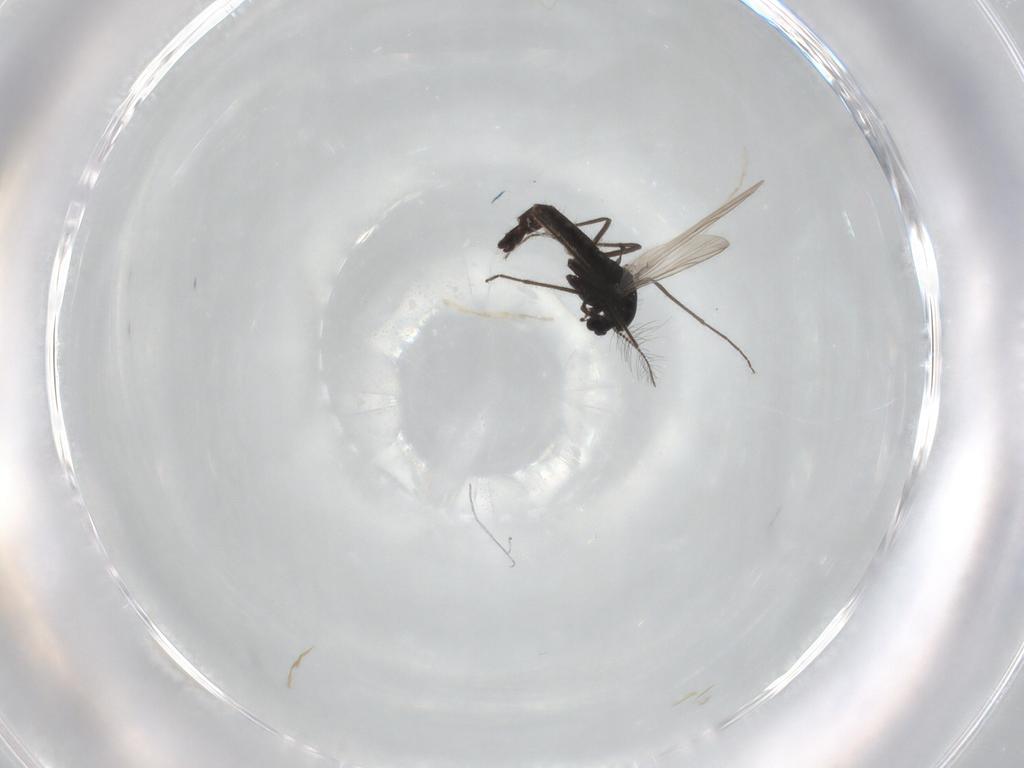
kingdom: Animalia
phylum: Arthropoda
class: Insecta
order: Diptera
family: Chironomidae
